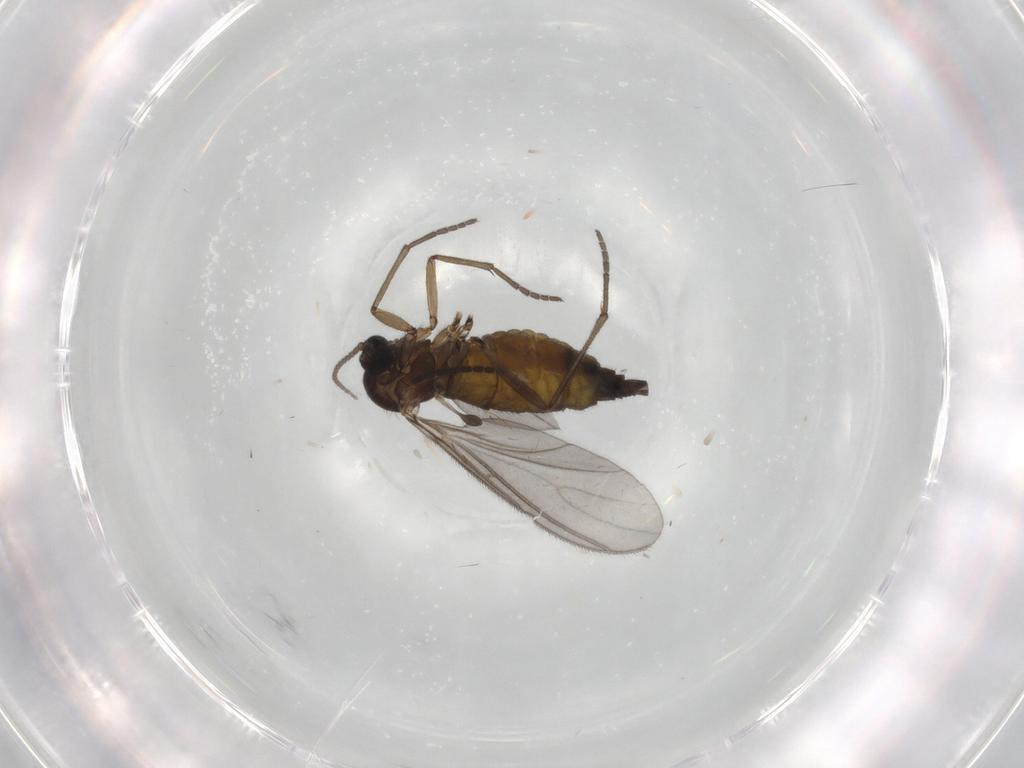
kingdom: Animalia
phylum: Arthropoda
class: Insecta
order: Diptera
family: Sciaridae
